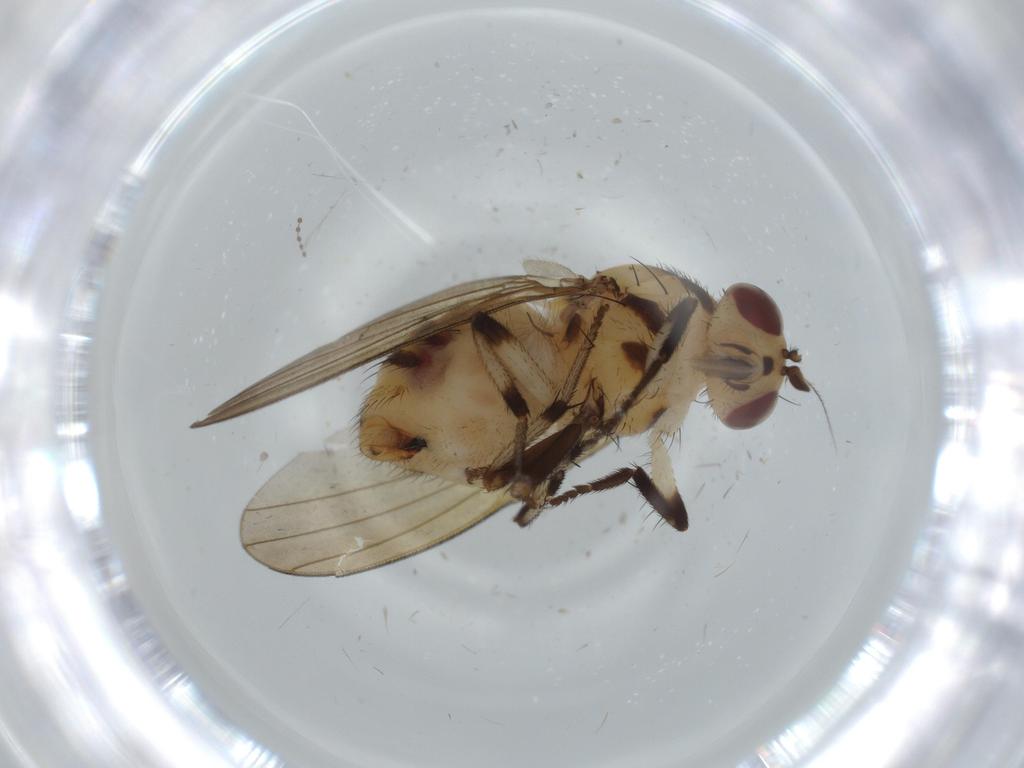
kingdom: Animalia
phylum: Arthropoda
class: Insecta
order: Diptera
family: Lauxaniidae
